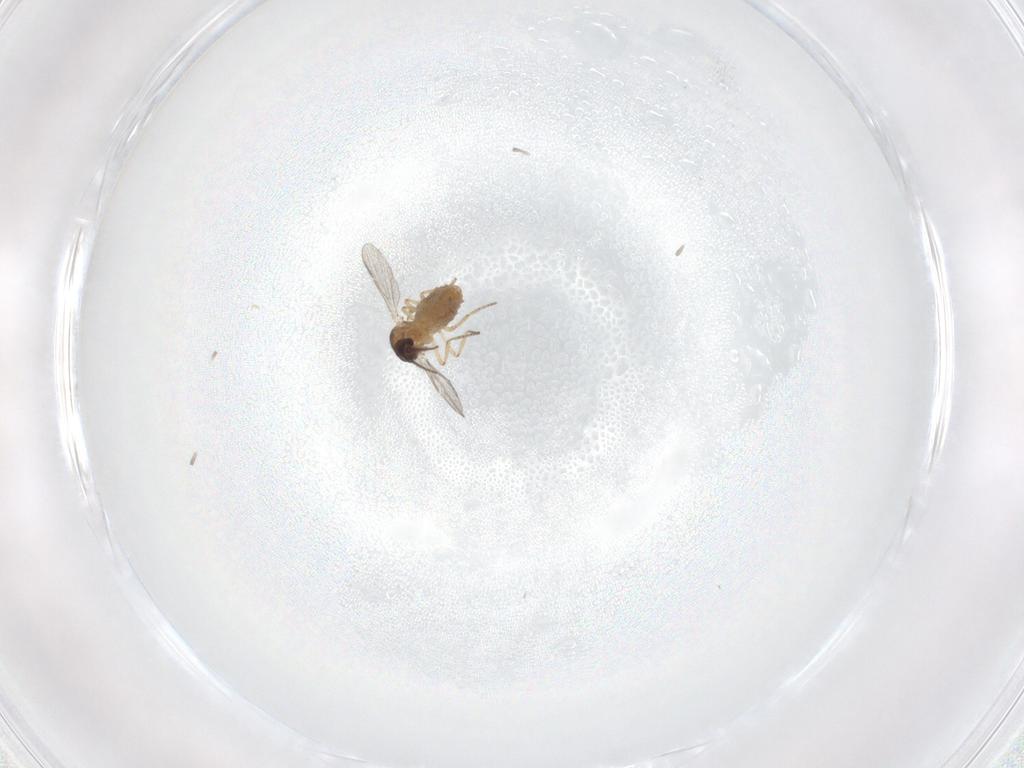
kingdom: Animalia
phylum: Arthropoda
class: Insecta
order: Diptera
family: Ceratopogonidae
